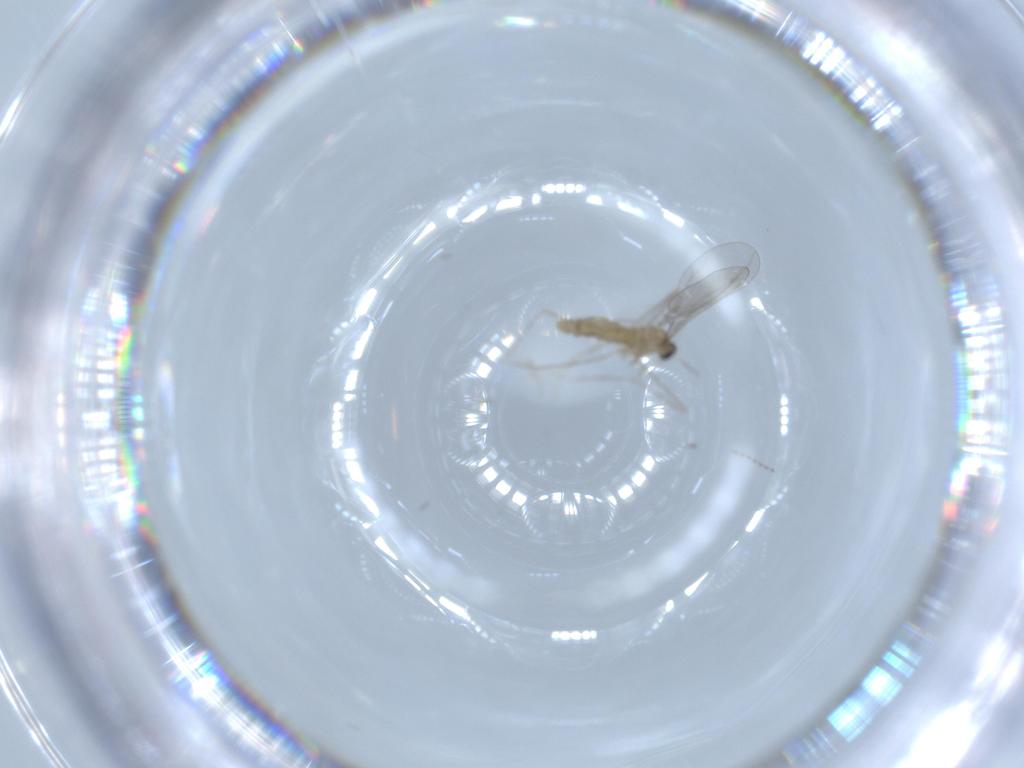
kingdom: Animalia
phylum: Arthropoda
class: Insecta
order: Diptera
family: Cecidomyiidae
